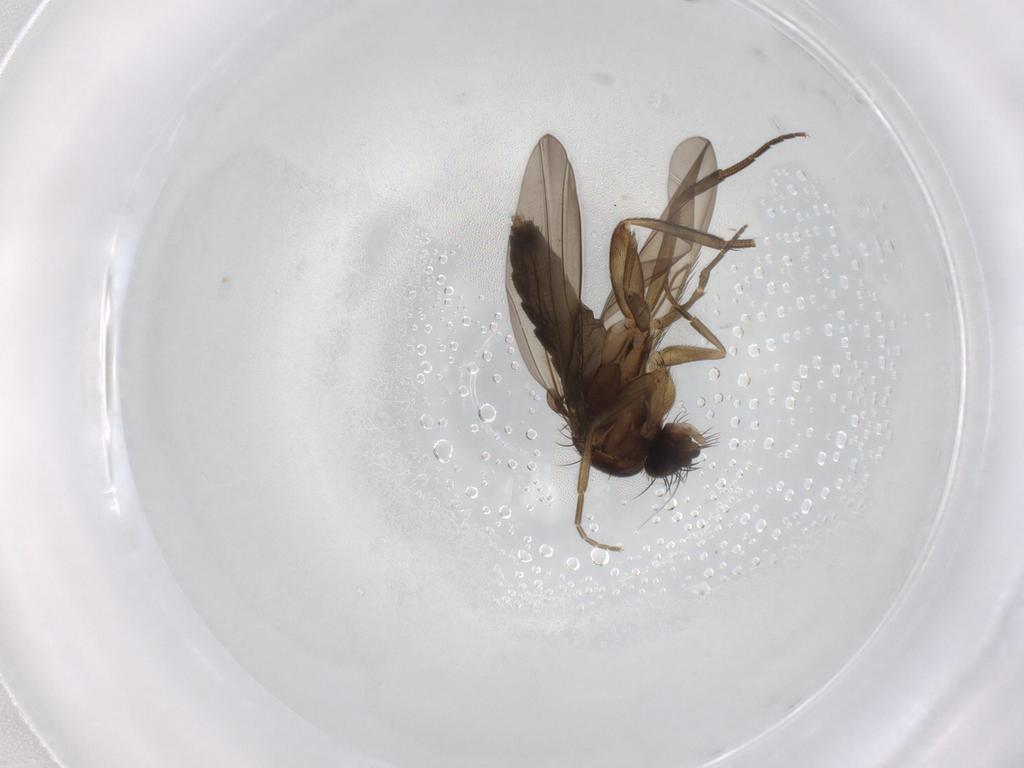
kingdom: Animalia
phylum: Arthropoda
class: Insecta
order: Diptera
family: Phoridae
